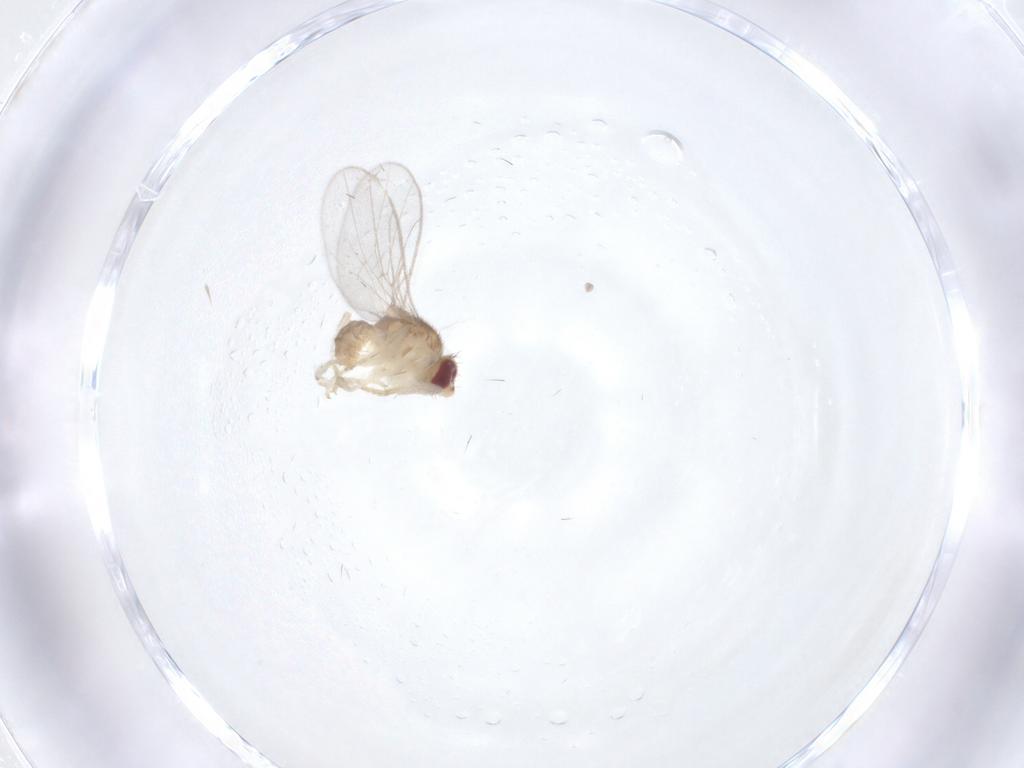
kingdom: Animalia
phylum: Arthropoda
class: Insecta
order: Diptera
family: Chloropidae
